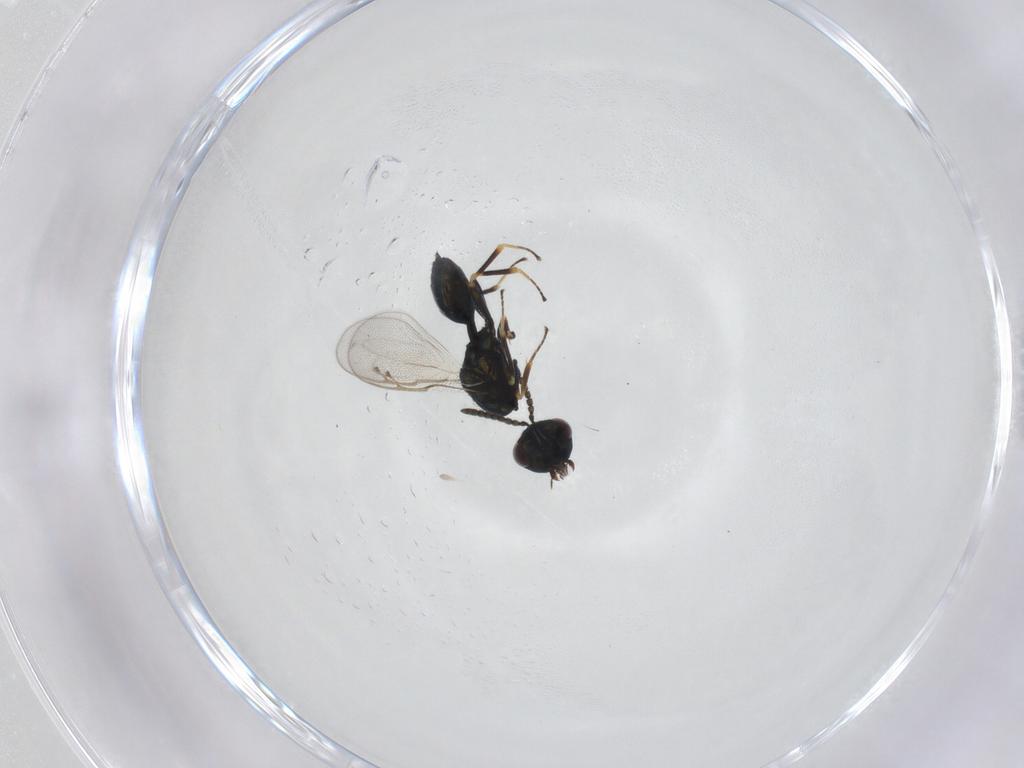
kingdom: Animalia
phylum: Arthropoda
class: Insecta
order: Hymenoptera
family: Pteromalidae
